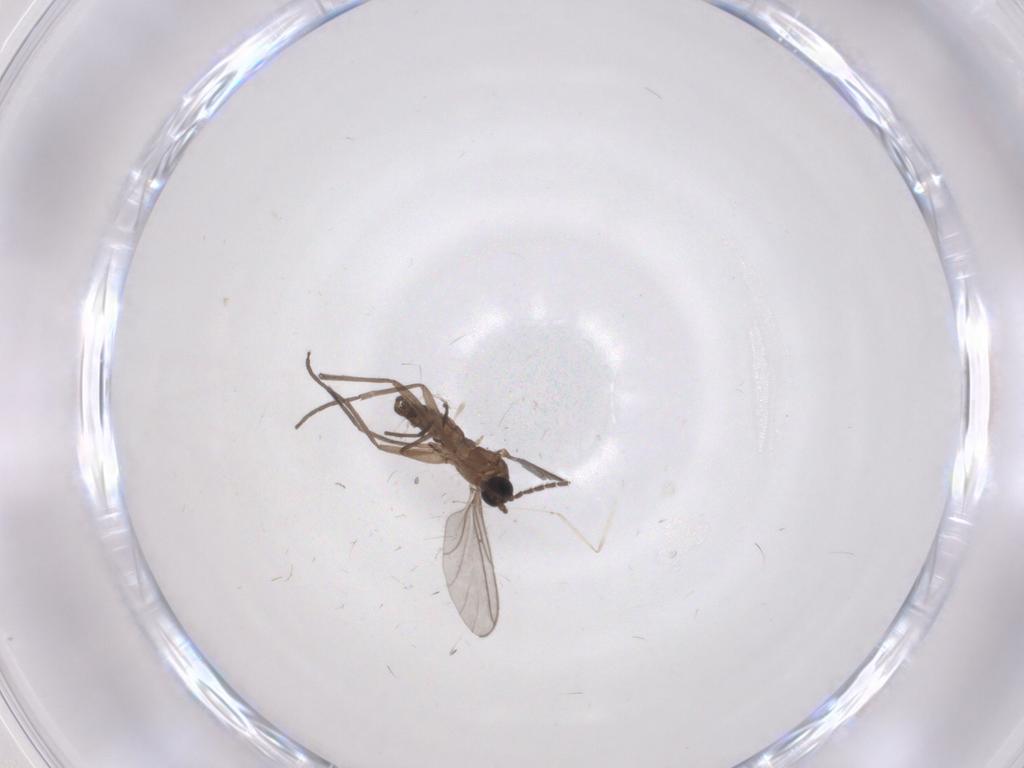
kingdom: Animalia
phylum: Arthropoda
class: Insecta
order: Diptera
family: Sciaridae
